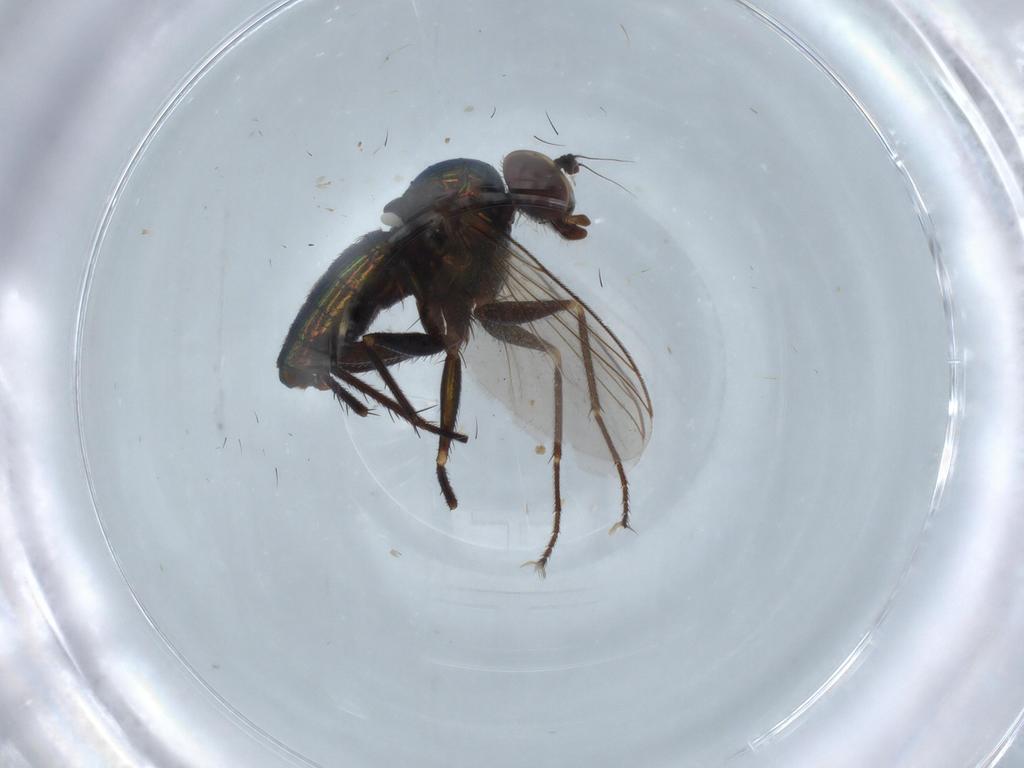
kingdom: Animalia
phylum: Arthropoda
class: Insecta
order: Diptera
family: Dolichopodidae
